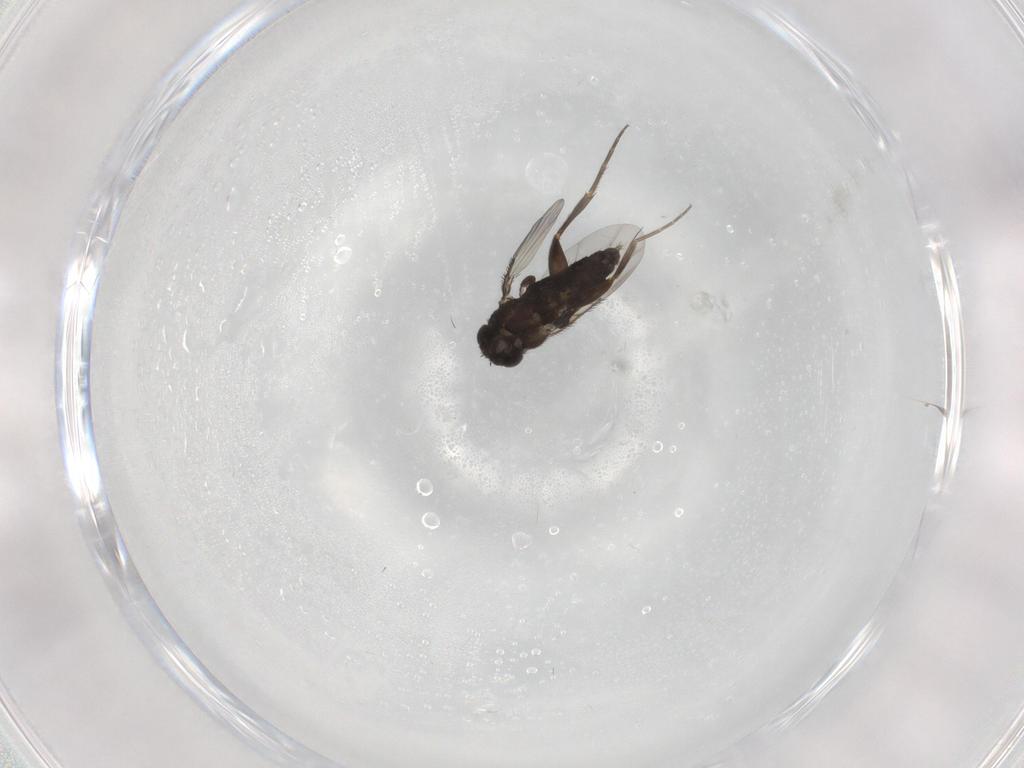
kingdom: Animalia
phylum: Arthropoda
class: Insecta
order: Diptera
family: Phoridae
